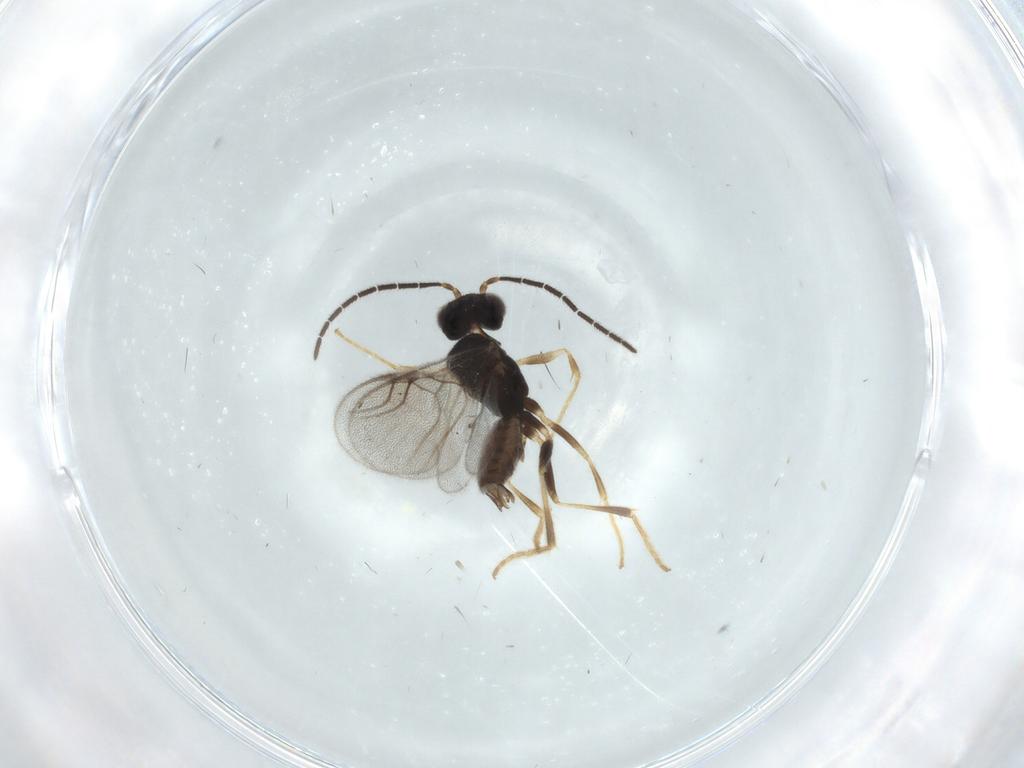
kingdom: Animalia
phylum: Arthropoda
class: Insecta
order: Hymenoptera
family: Dryinidae
